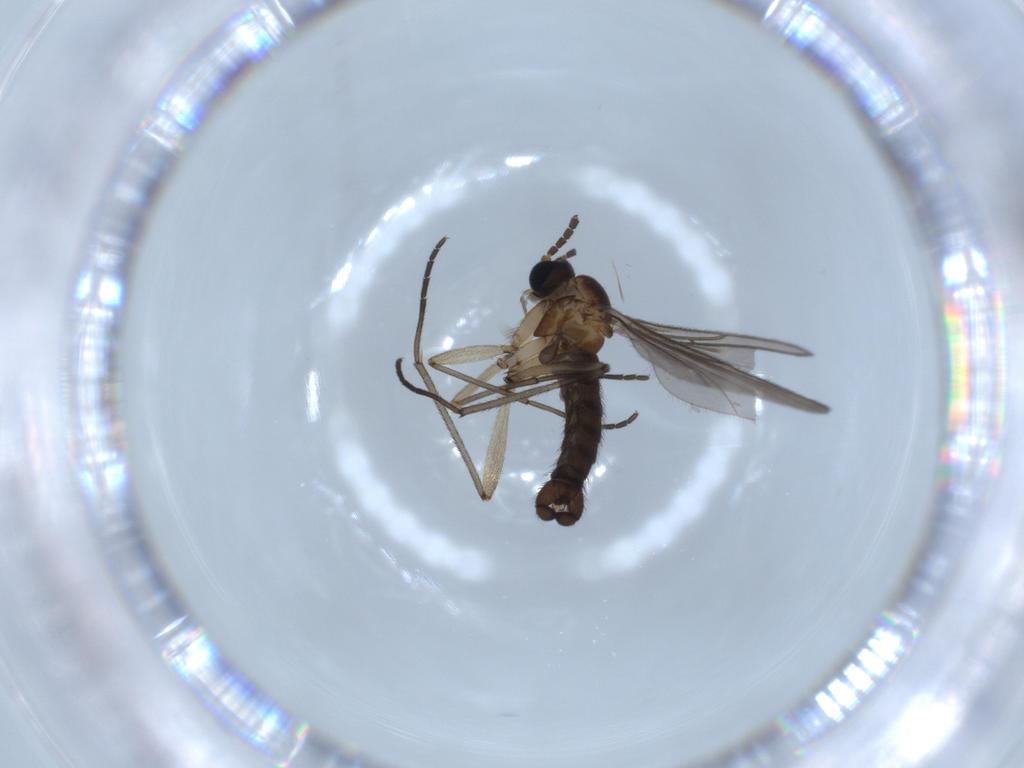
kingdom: Animalia
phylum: Arthropoda
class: Insecta
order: Diptera
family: Sciaridae
